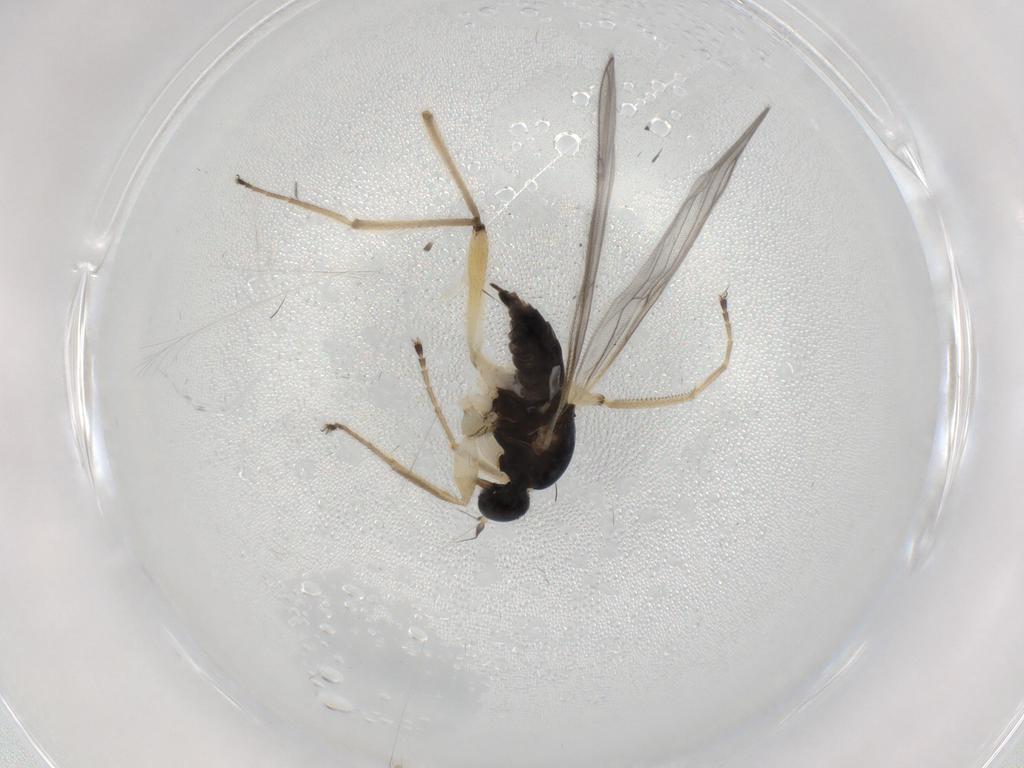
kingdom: Animalia
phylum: Arthropoda
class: Insecta
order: Diptera
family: Hybotidae
